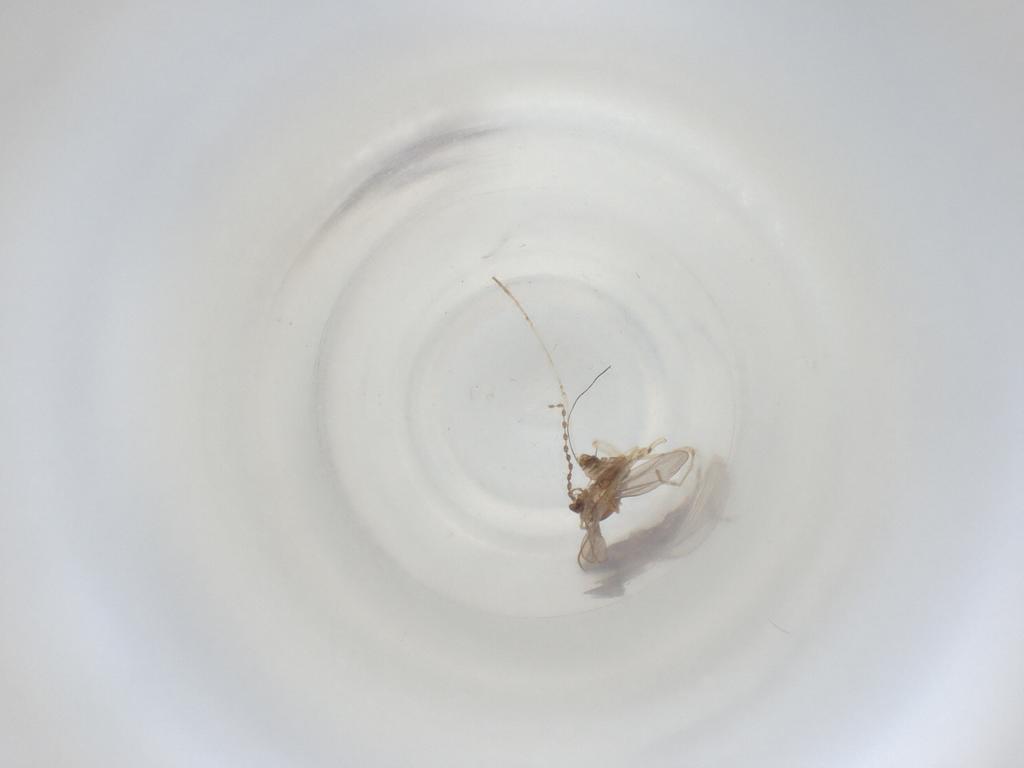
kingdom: Animalia
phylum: Arthropoda
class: Insecta
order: Diptera
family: Cecidomyiidae
